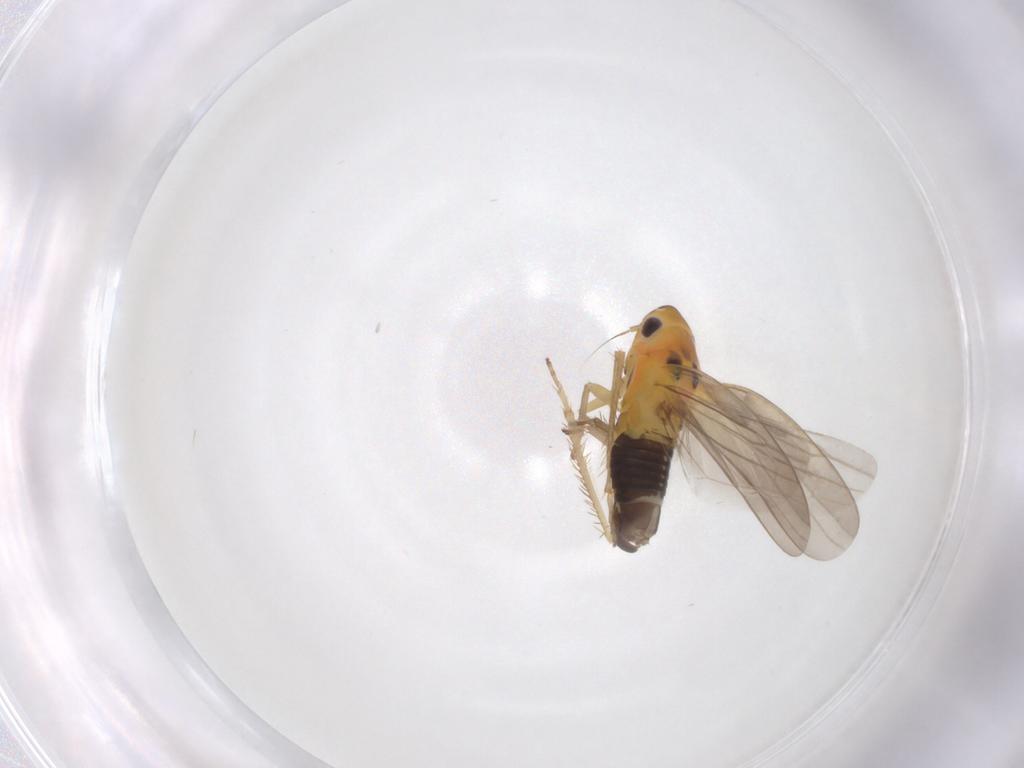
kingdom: Animalia
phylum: Arthropoda
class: Insecta
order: Hemiptera
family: Cicadellidae
